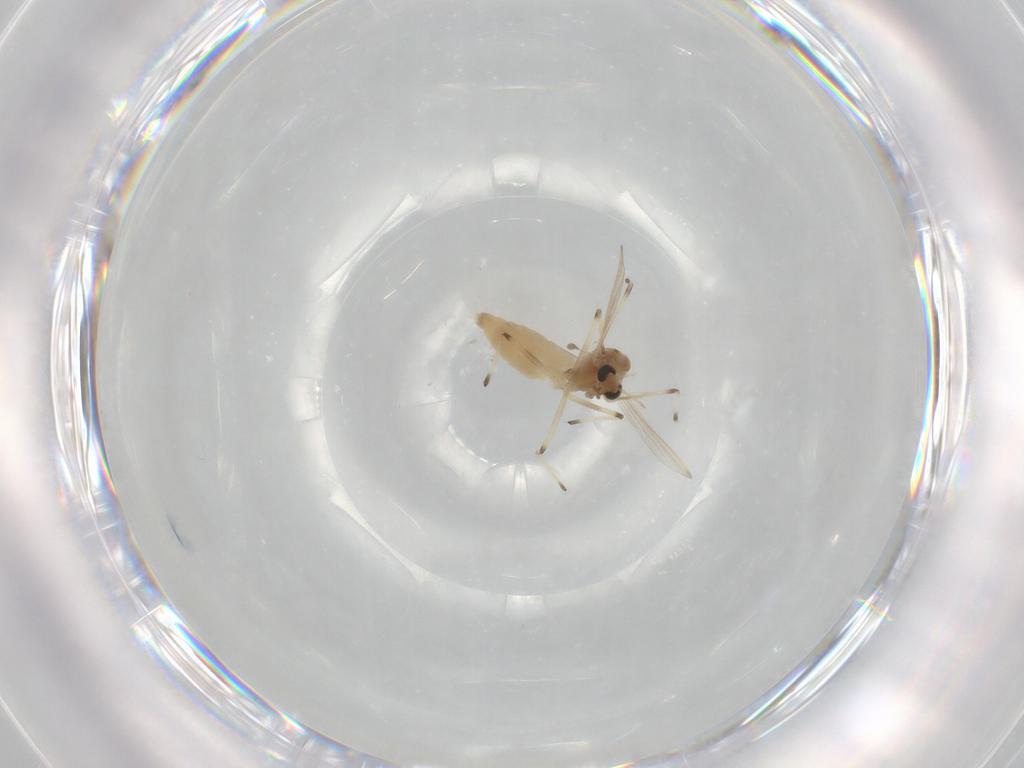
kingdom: Animalia
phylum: Arthropoda
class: Insecta
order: Diptera
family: Chironomidae
